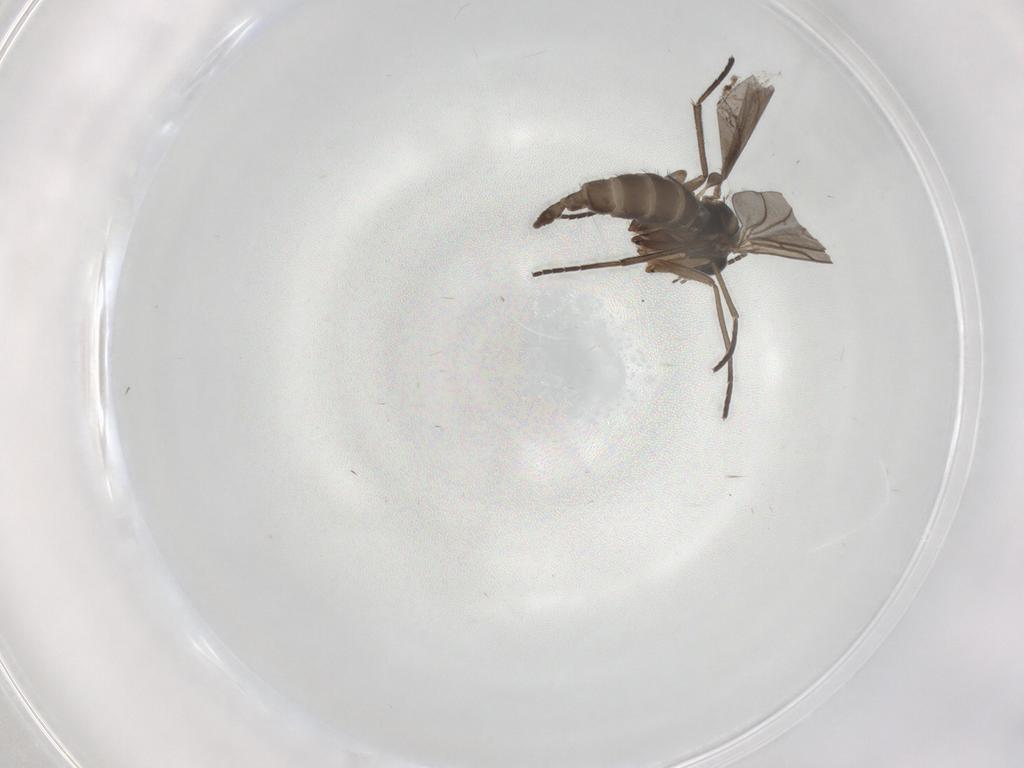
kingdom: Animalia
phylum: Arthropoda
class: Insecta
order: Diptera
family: Sciaridae
